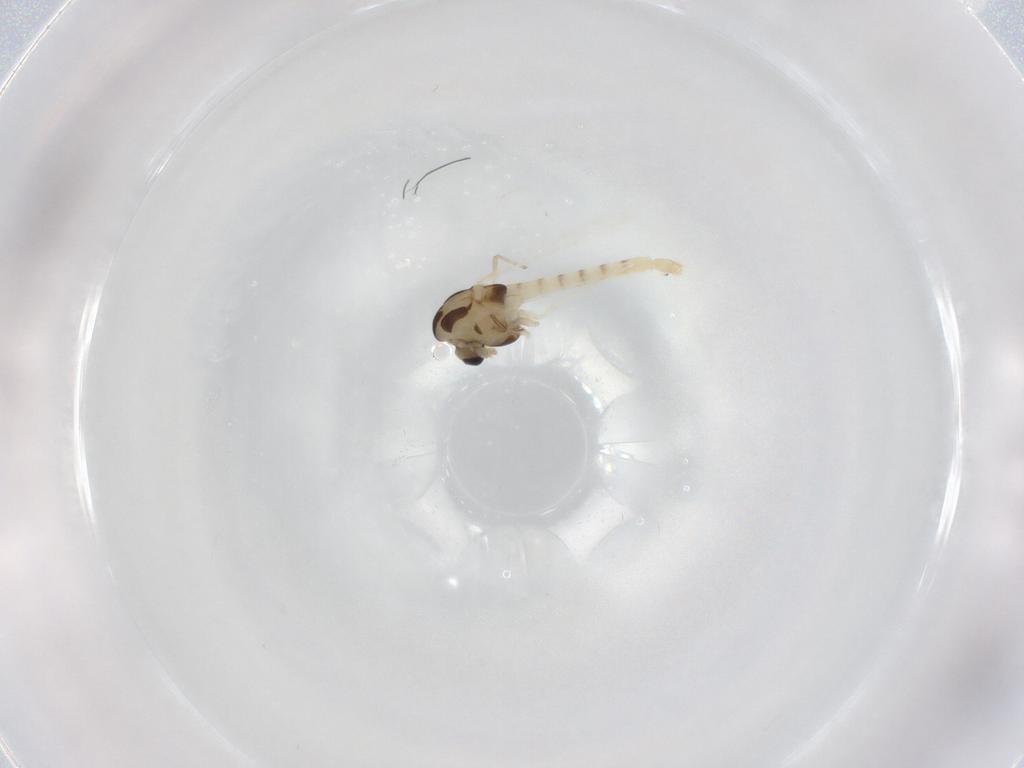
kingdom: Animalia
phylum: Arthropoda
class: Insecta
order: Diptera
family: Chironomidae
